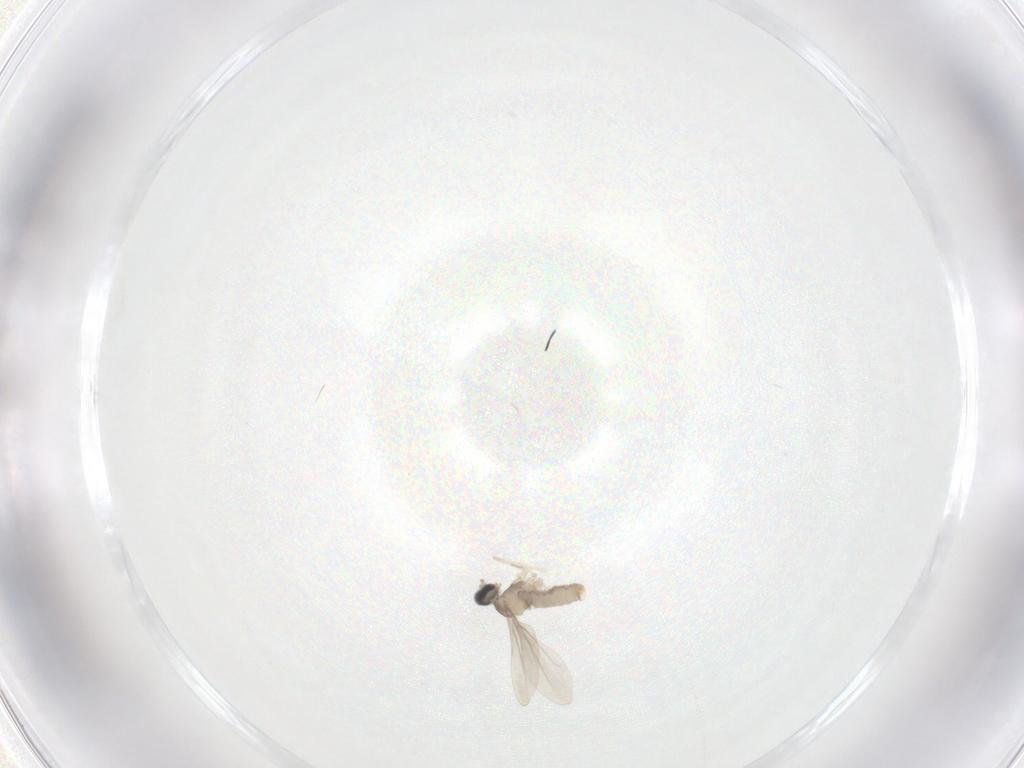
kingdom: Animalia
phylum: Arthropoda
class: Insecta
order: Diptera
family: Cecidomyiidae
